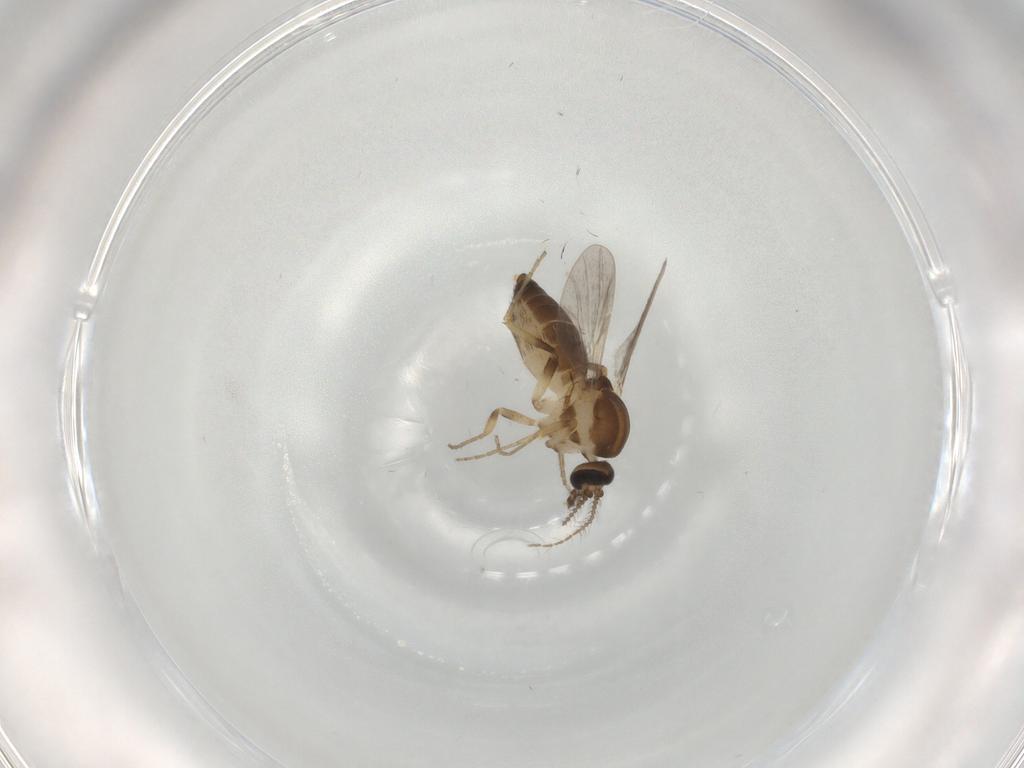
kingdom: Animalia
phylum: Arthropoda
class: Insecta
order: Diptera
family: Ceratopogonidae
